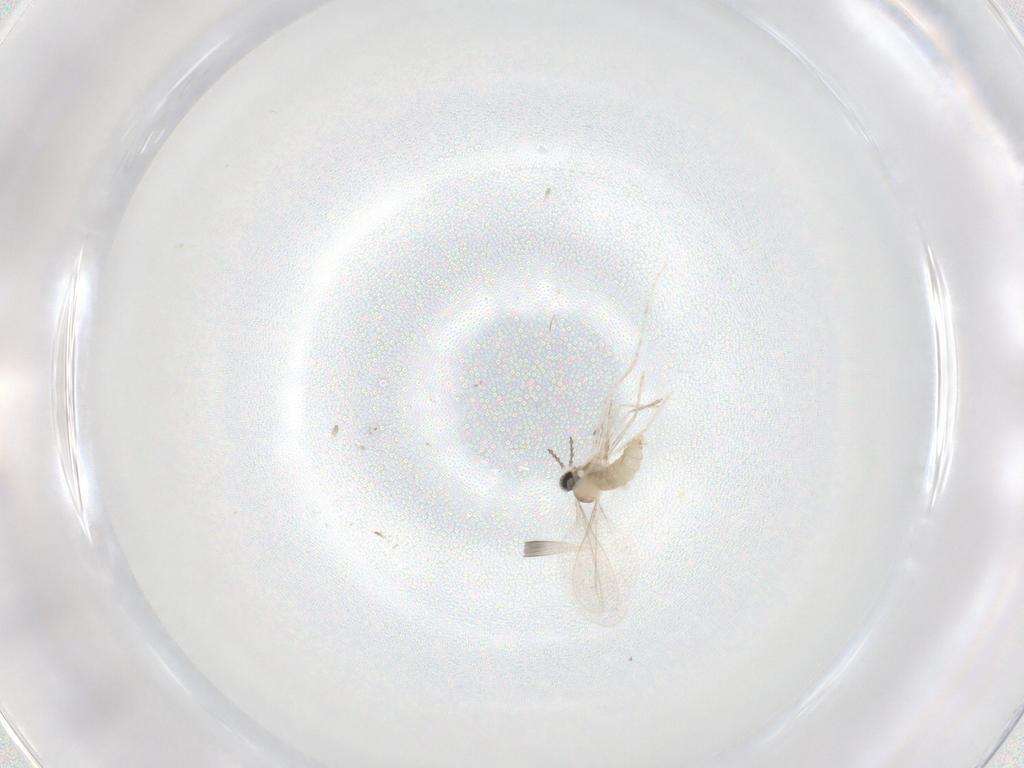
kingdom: Animalia
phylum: Arthropoda
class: Insecta
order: Diptera
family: Cecidomyiidae
